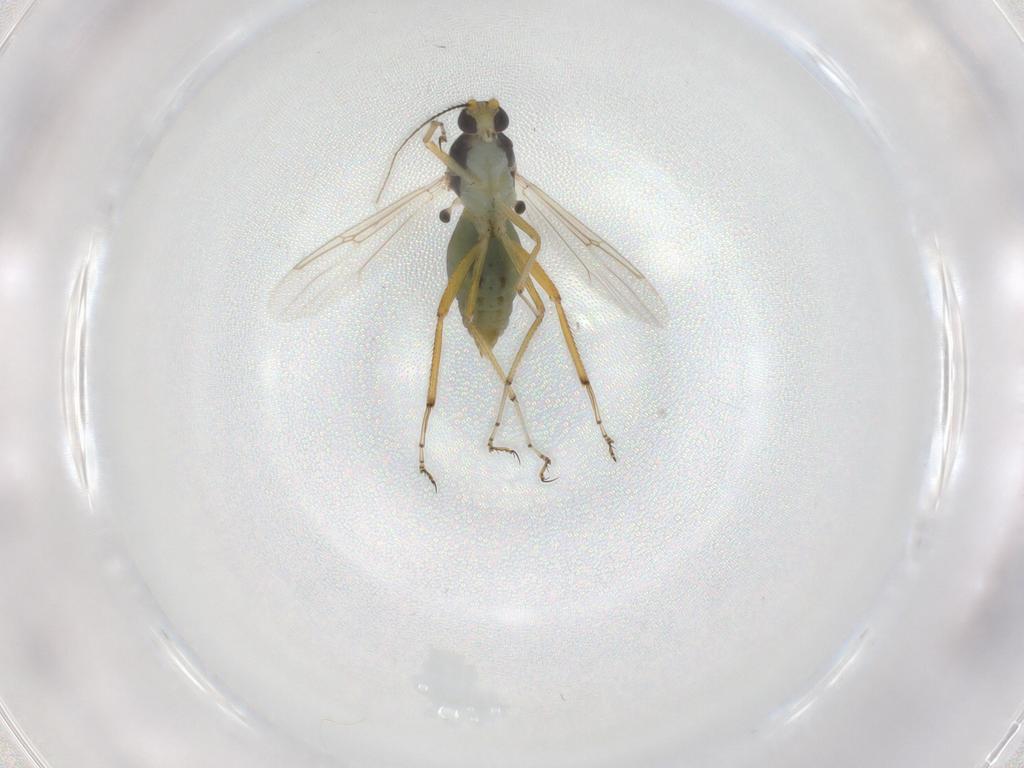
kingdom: Animalia
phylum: Arthropoda
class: Insecta
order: Diptera
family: Ceratopogonidae
